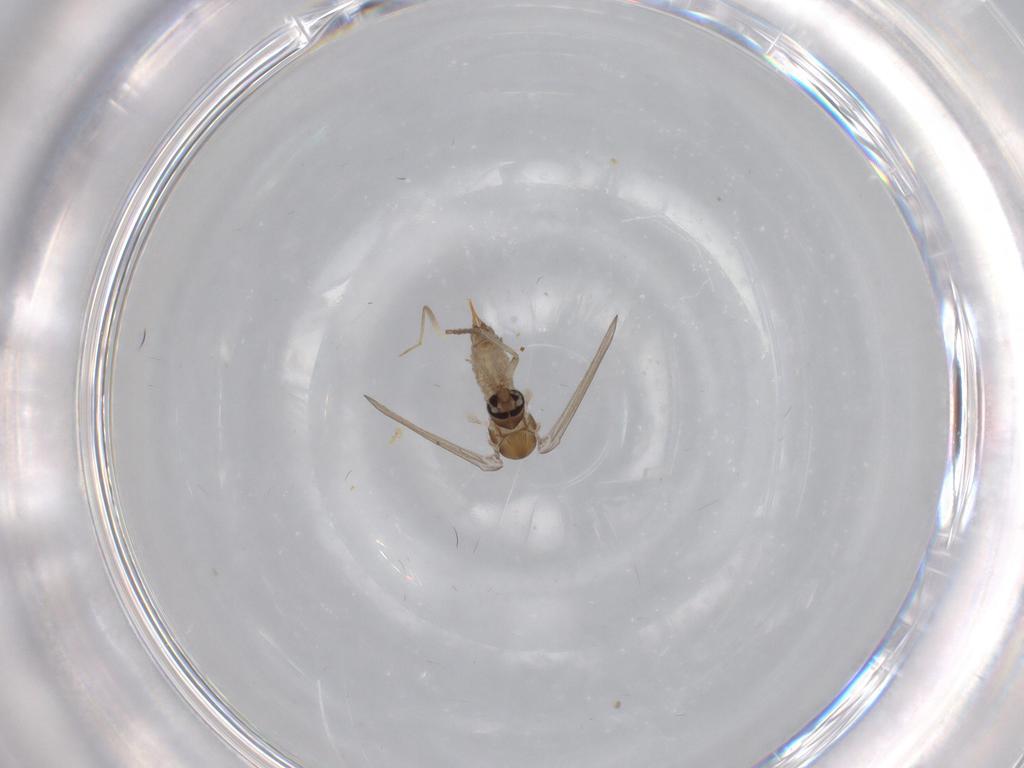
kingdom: Animalia
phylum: Arthropoda
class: Insecta
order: Diptera
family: Psychodidae
